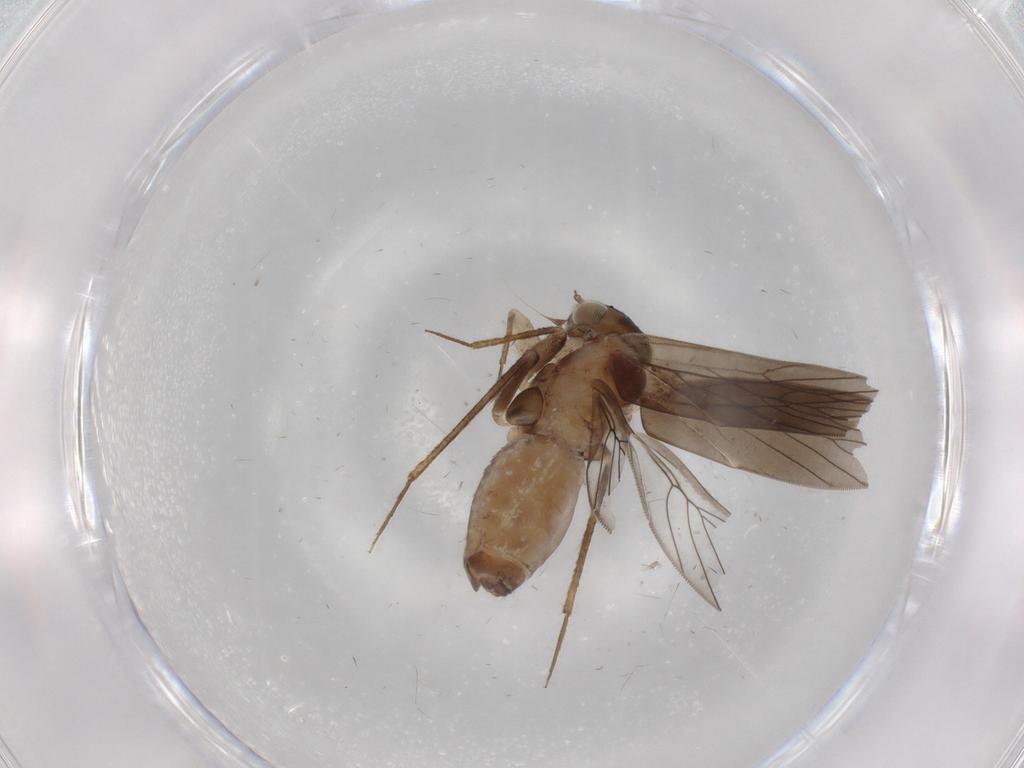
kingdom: Animalia
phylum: Arthropoda
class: Insecta
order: Psocodea
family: Lepidopsocidae
